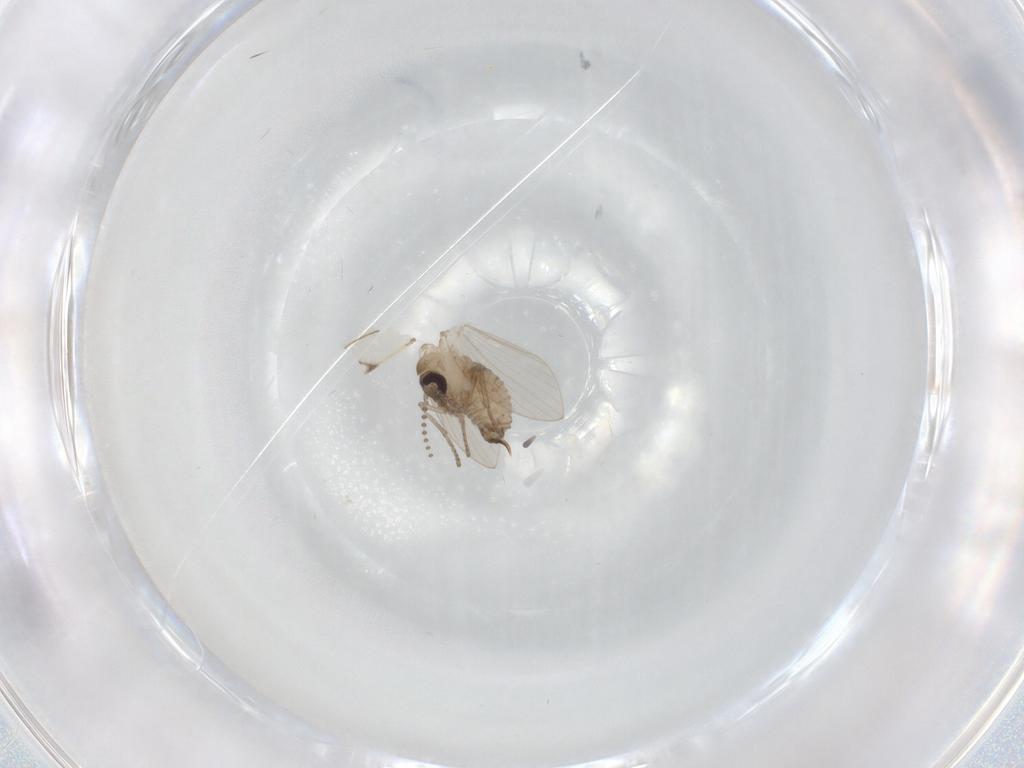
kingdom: Animalia
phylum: Arthropoda
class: Insecta
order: Diptera
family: Psychodidae
